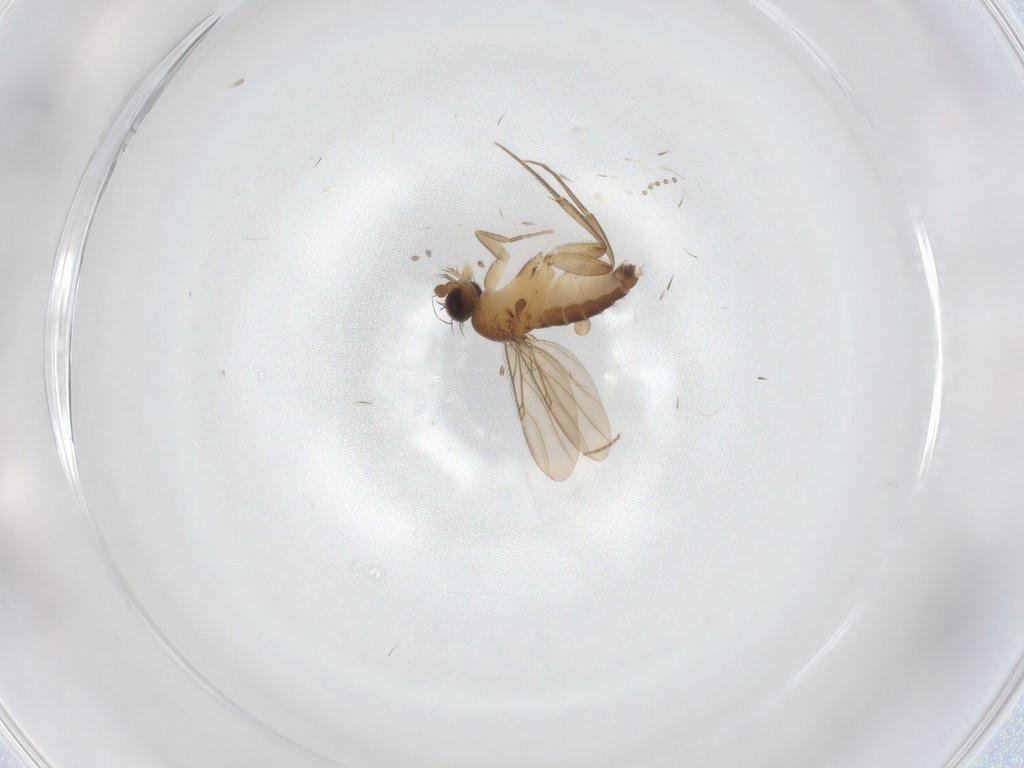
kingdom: Animalia
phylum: Arthropoda
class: Insecta
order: Diptera
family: Phoridae
